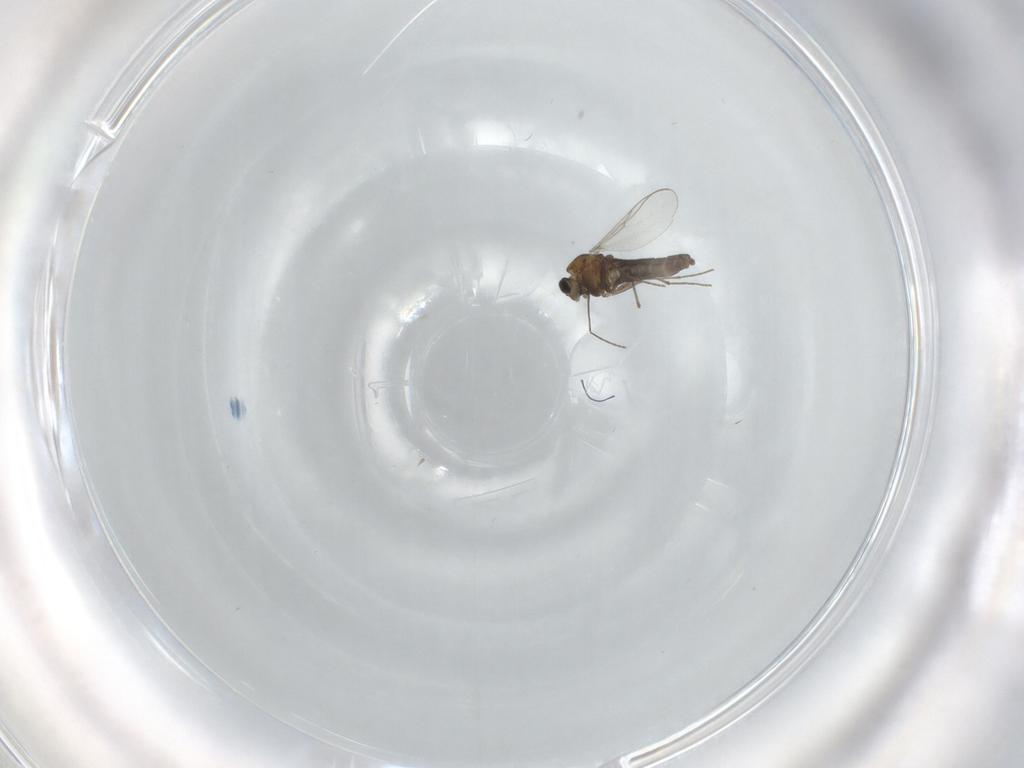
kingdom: Animalia
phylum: Arthropoda
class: Insecta
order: Diptera
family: Chironomidae
